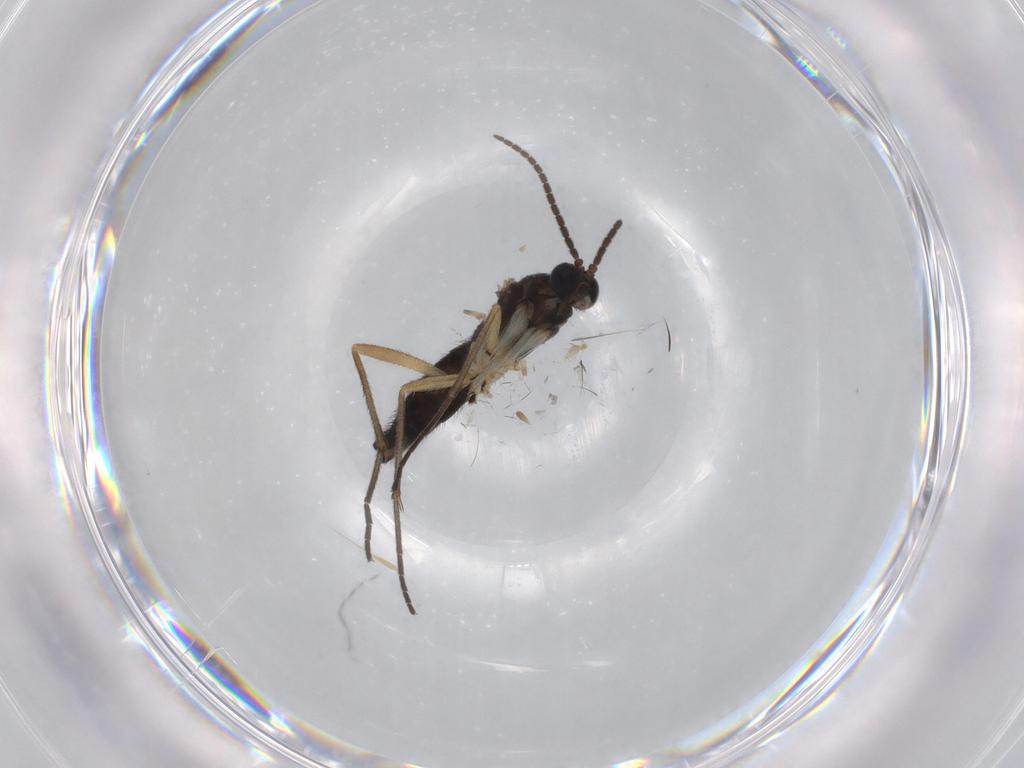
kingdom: Animalia
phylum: Arthropoda
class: Insecta
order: Diptera
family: Sciaridae
